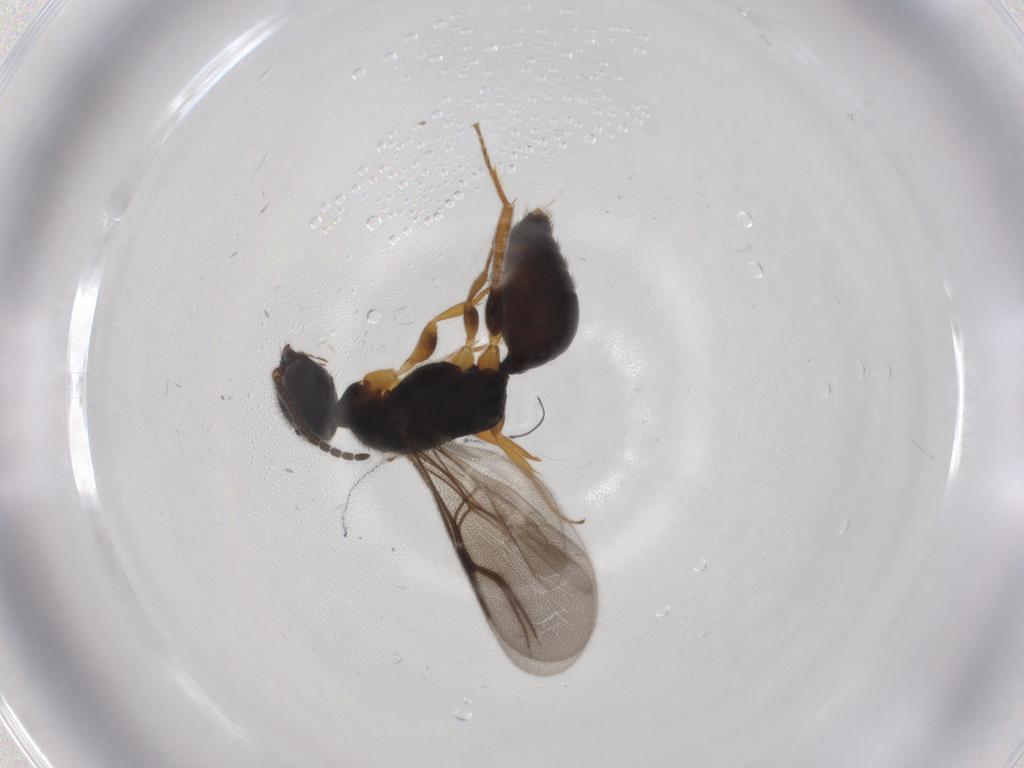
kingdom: Animalia
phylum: Arthropoda
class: Insecta
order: Hymenoptera
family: Bethylidae
